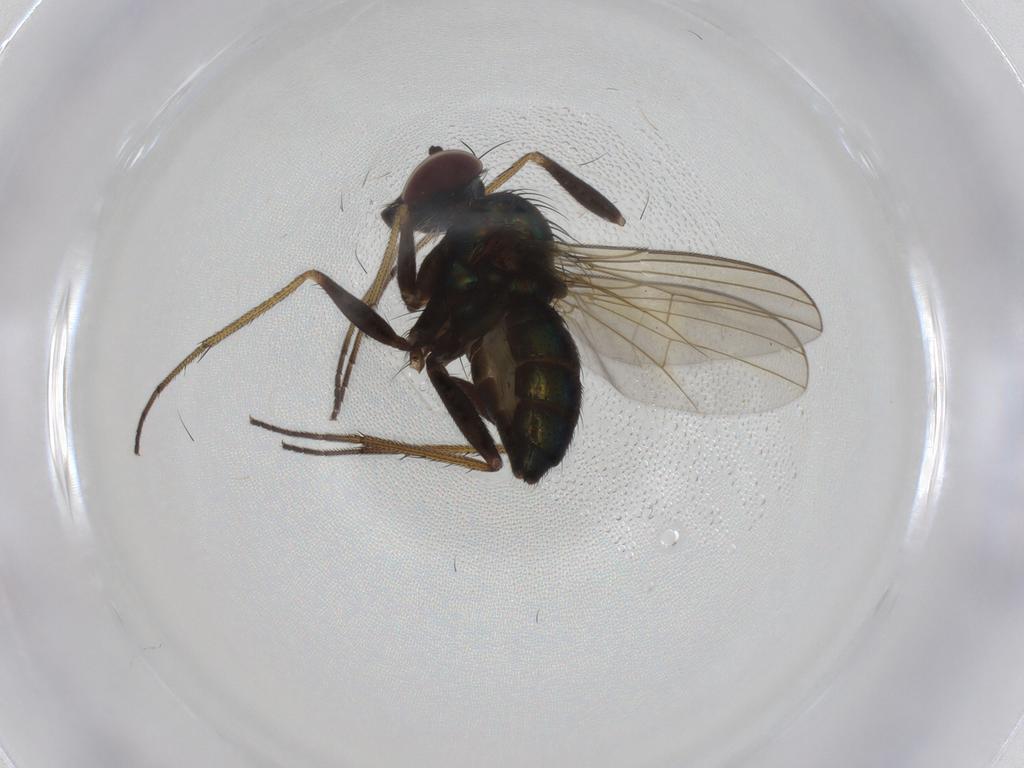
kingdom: Animalia
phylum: Arthropoda
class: Insecta
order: Diptera
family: Dolichopodidae
